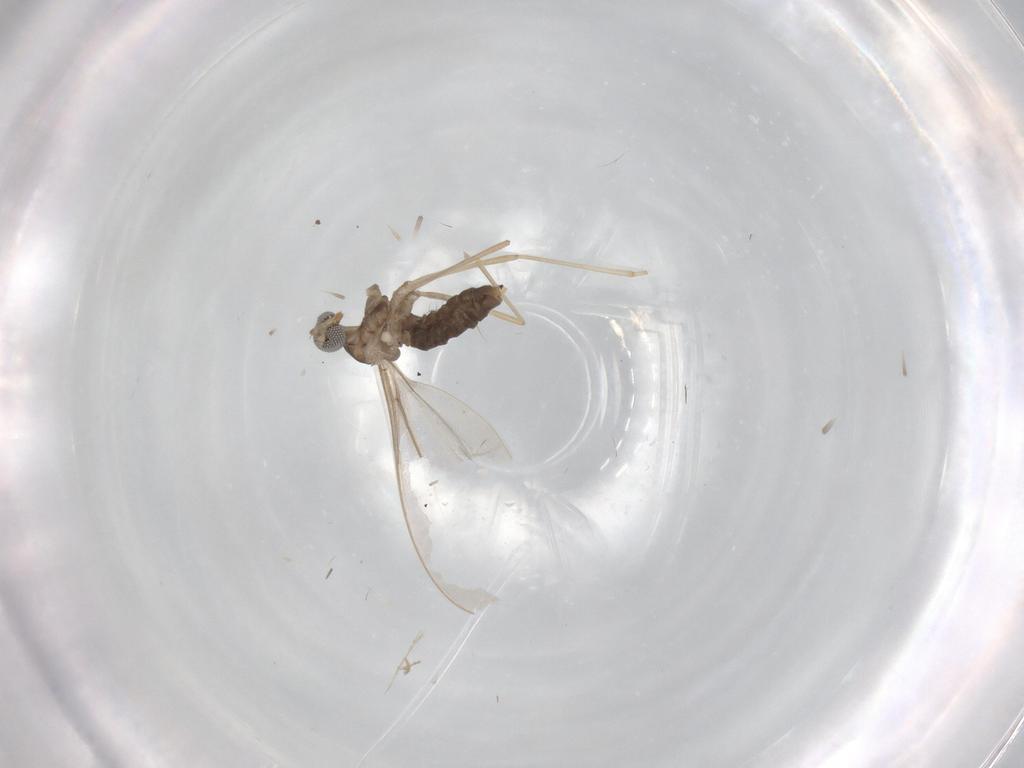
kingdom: Animalia
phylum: Arthropoda
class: Insecta
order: Diptera
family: Cecidomyiidae
